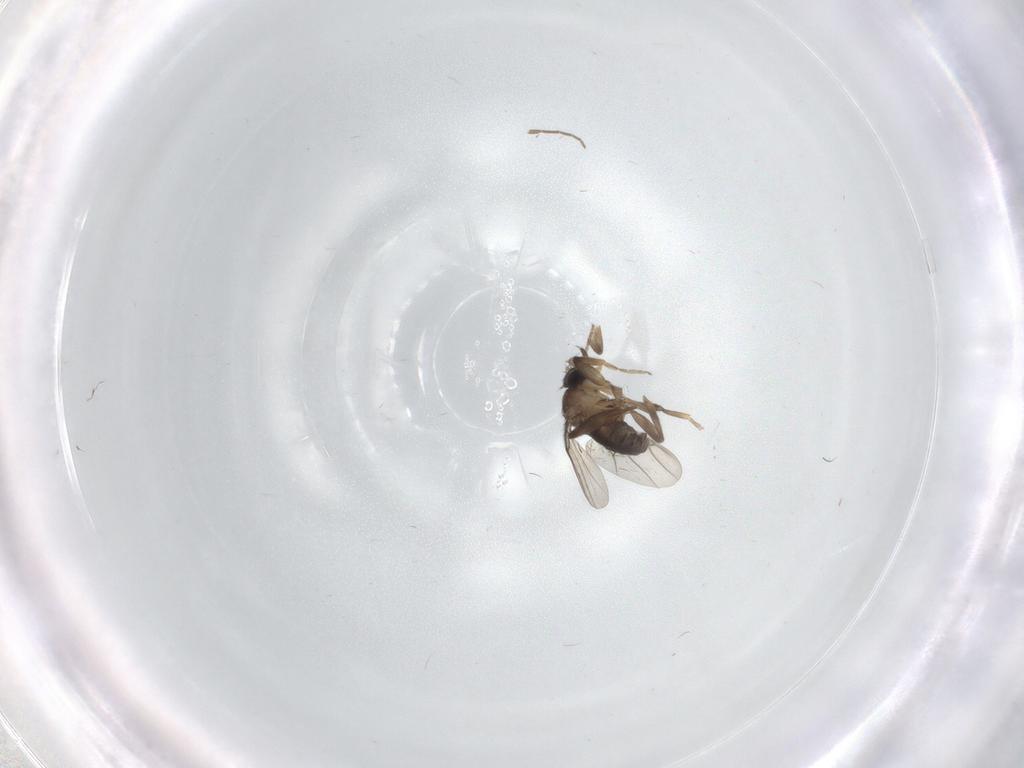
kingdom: Animalia
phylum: Arthropoda
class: Insecta
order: Diptera
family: Phoridae
